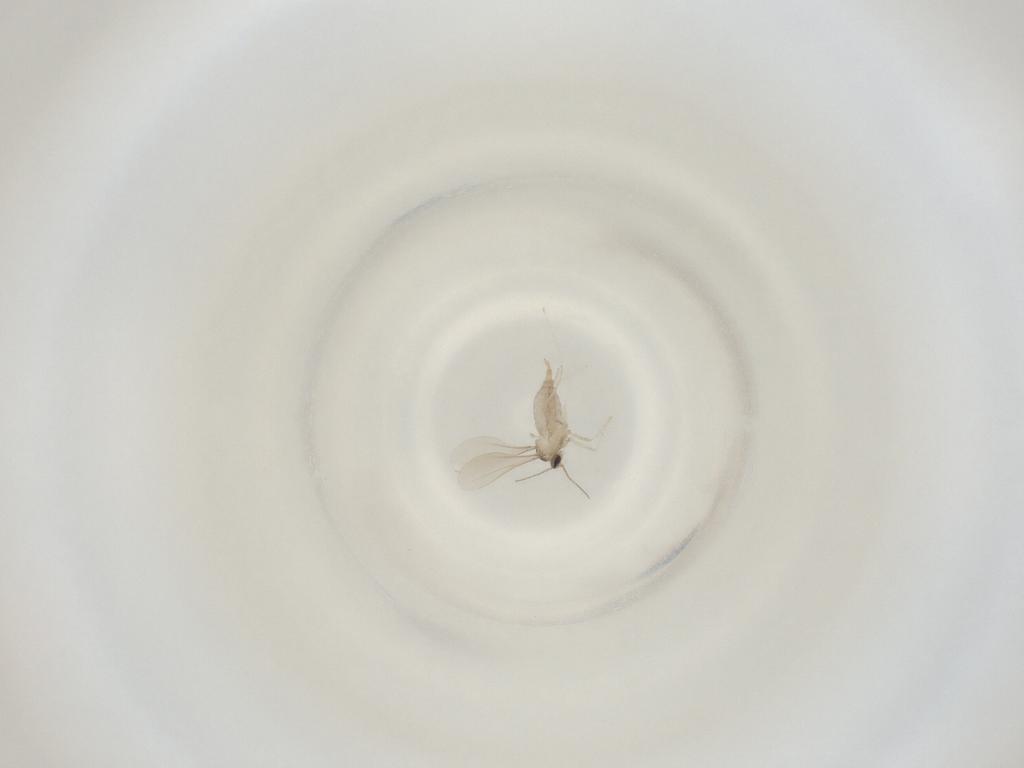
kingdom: Animalia
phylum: Arthropoda
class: Insecta
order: Diptera
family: Cecidomyiidae
